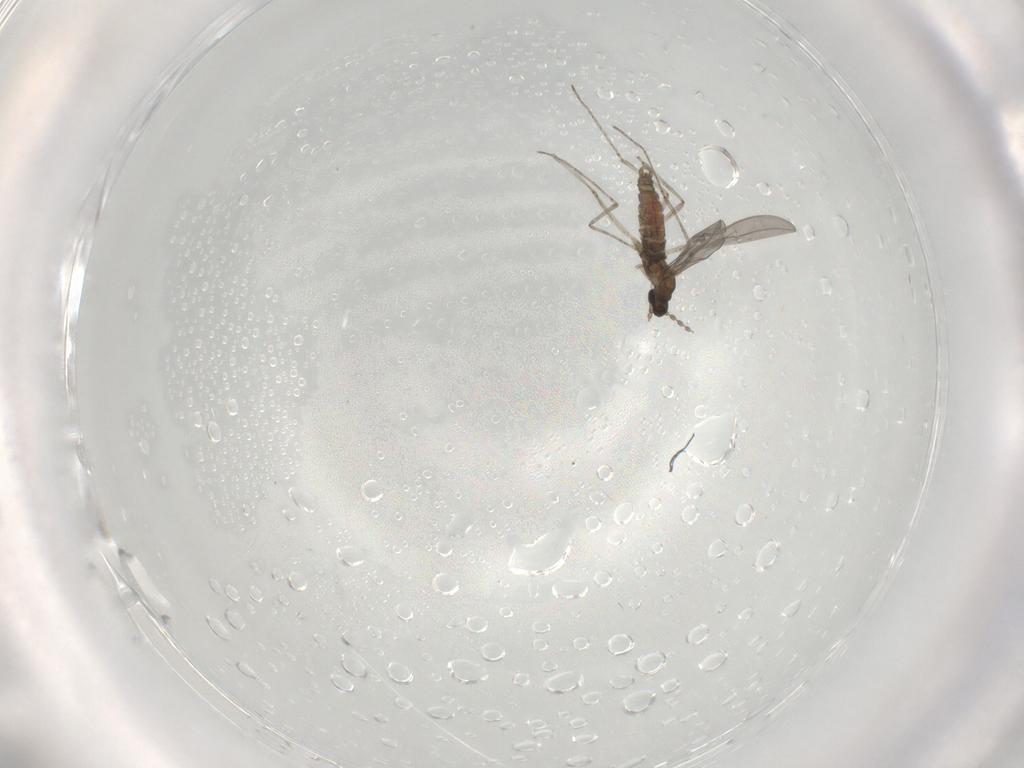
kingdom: Animalia
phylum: Arthropoda
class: Insecta
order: Diptera
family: Cecidomyiidae
